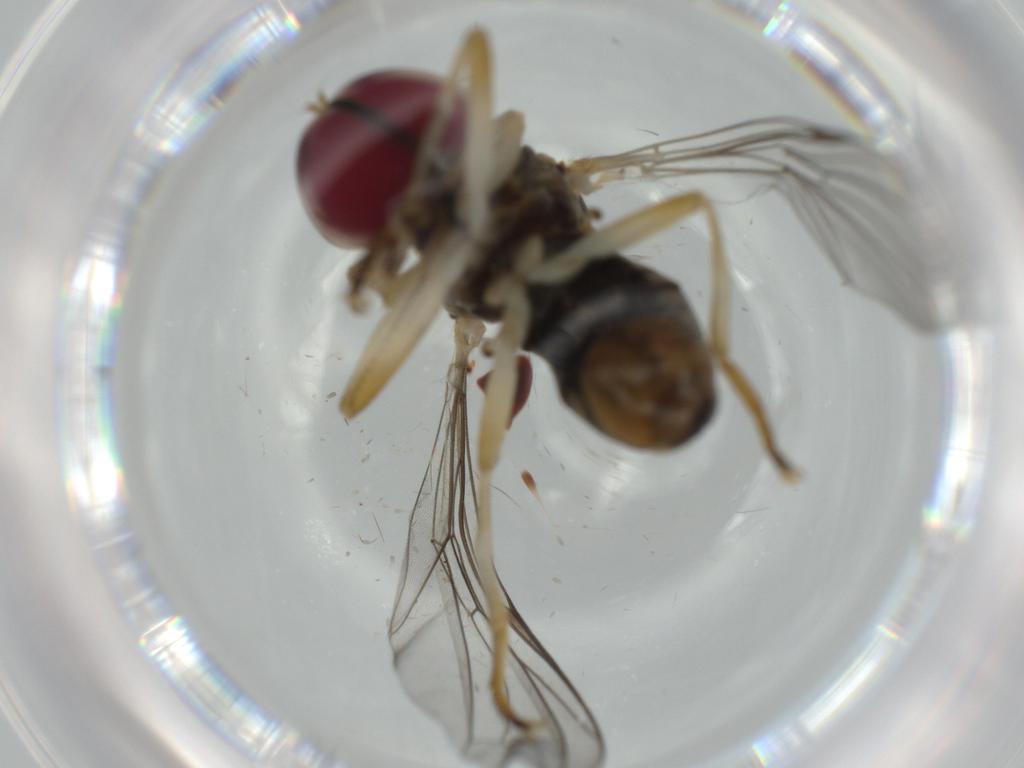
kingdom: Animalia
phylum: Arthropoda
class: Insecta
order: Diptera
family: Sciaridae
